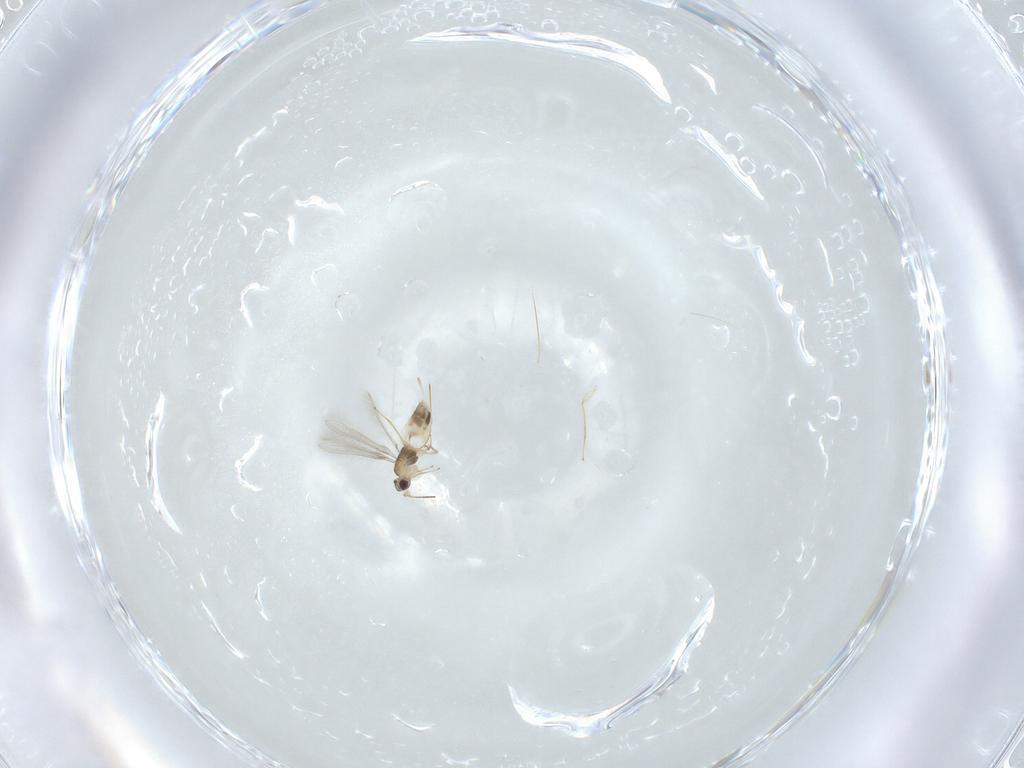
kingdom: Animalia
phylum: Arthropoda
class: Insecta
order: Hymenoptera
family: Mymaridae
